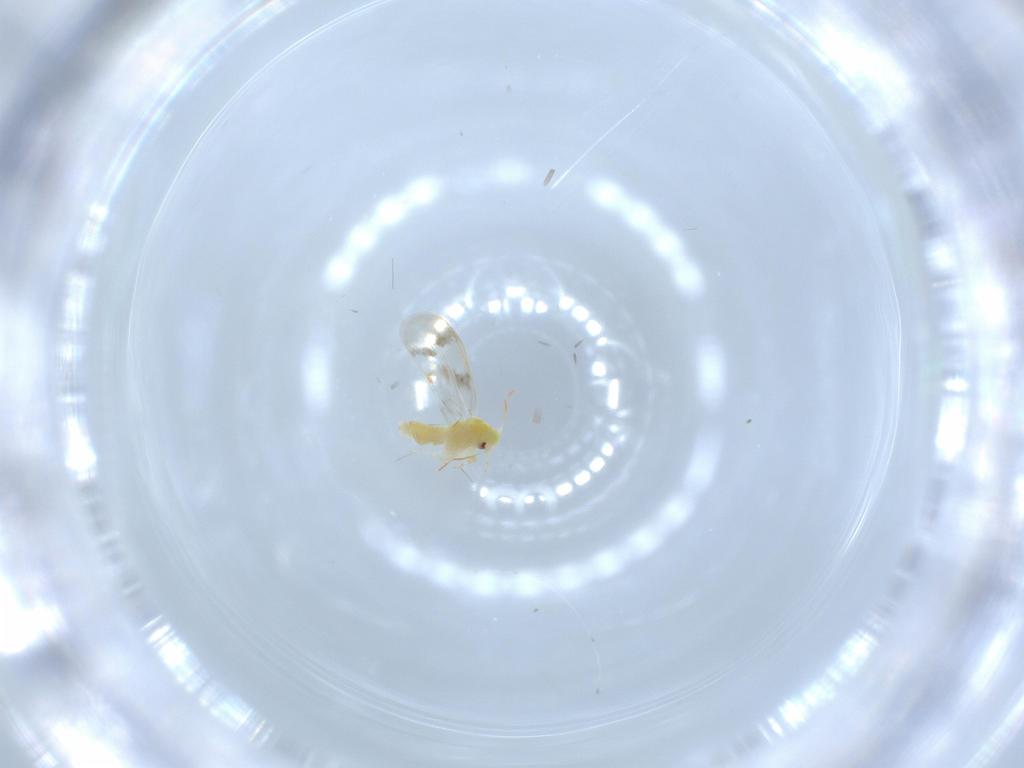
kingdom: Animalia
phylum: Arthropoda
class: Insecta
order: Hemiptera
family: Aleyrodidae
